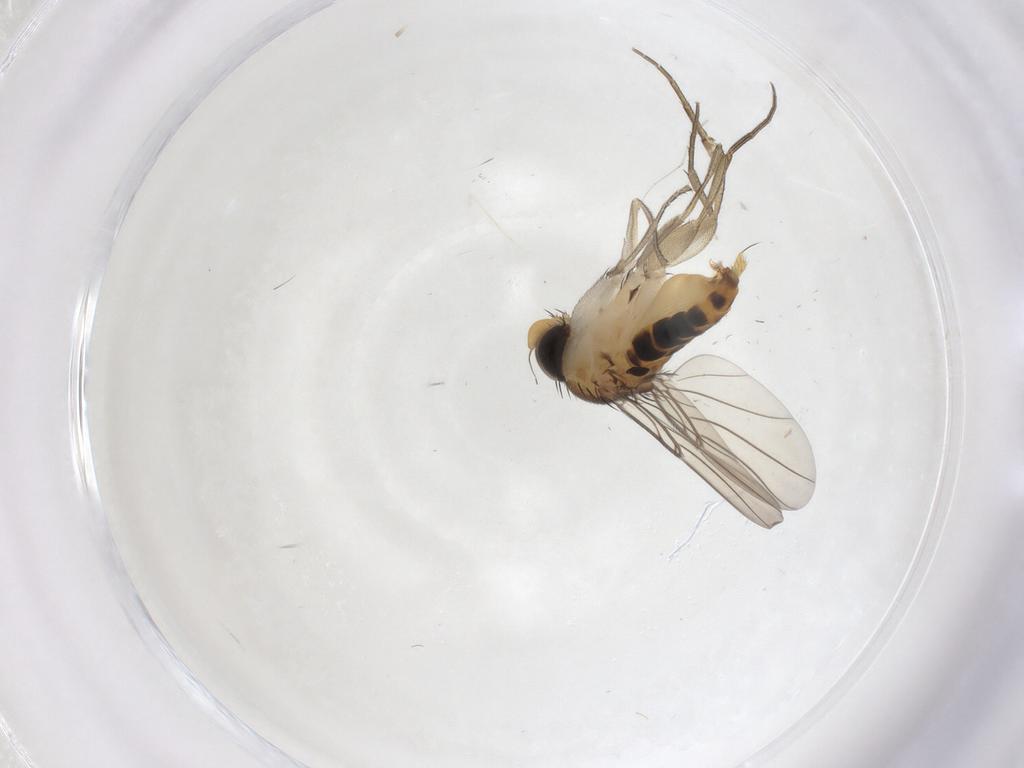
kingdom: Animalia
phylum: Arthropoda
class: Insecta
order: Diptera
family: Phoridae
